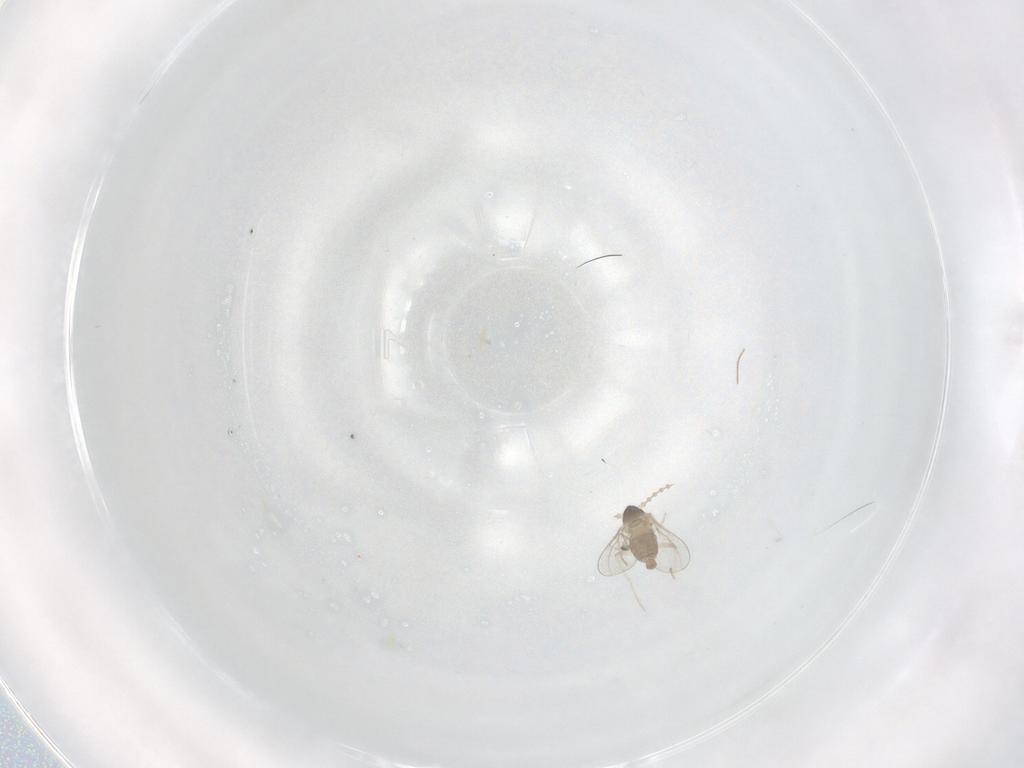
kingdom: Animalia
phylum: Arthropoda
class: Insecta
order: Diptera
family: Cecidomyiidae
